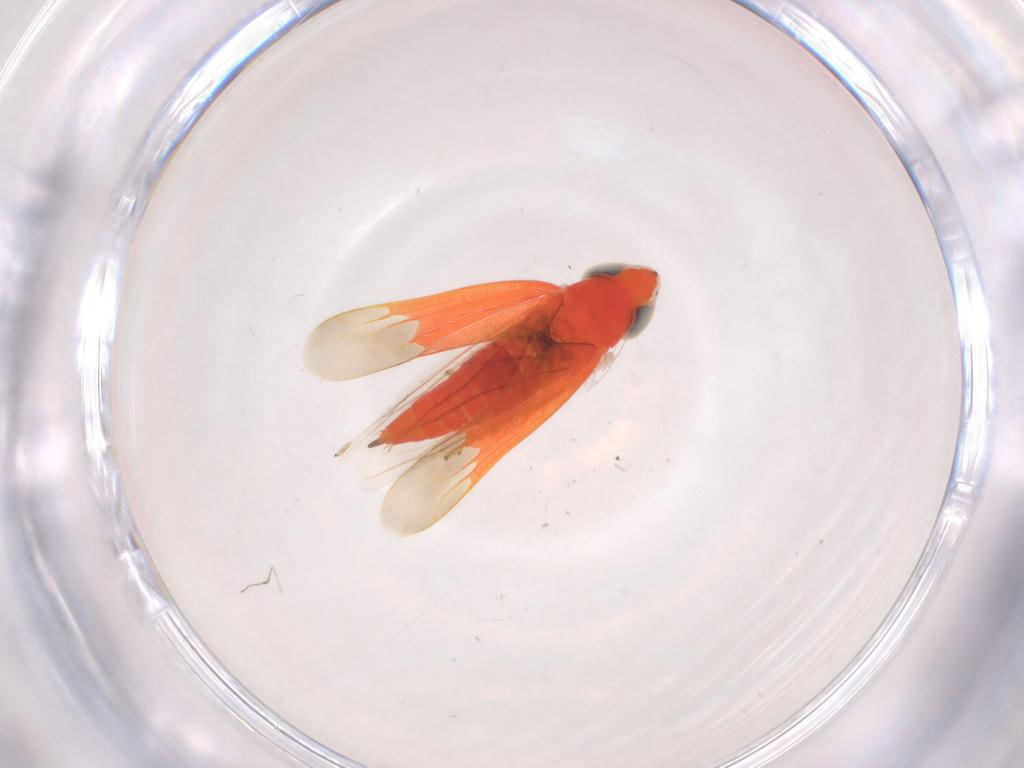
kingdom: Animalia
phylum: Arthropoda
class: Insecta
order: Hemiptera
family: Cicadellidae
